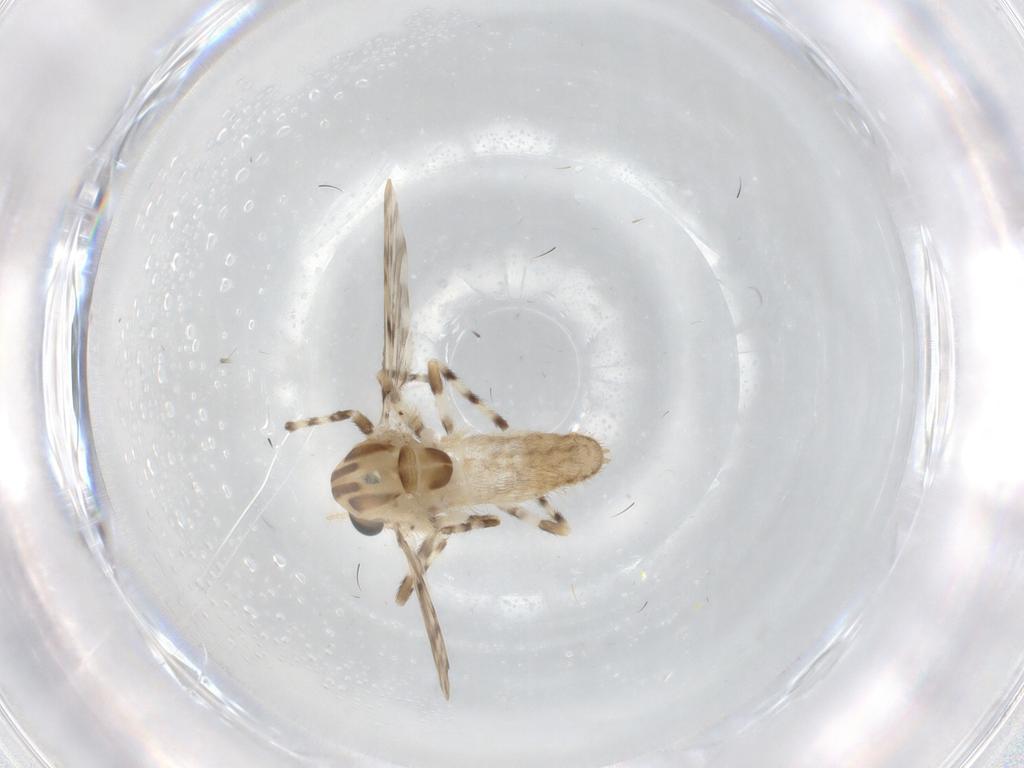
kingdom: Animalia
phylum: Arthropoda
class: Insecta
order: Diptera
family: Chironomidae
